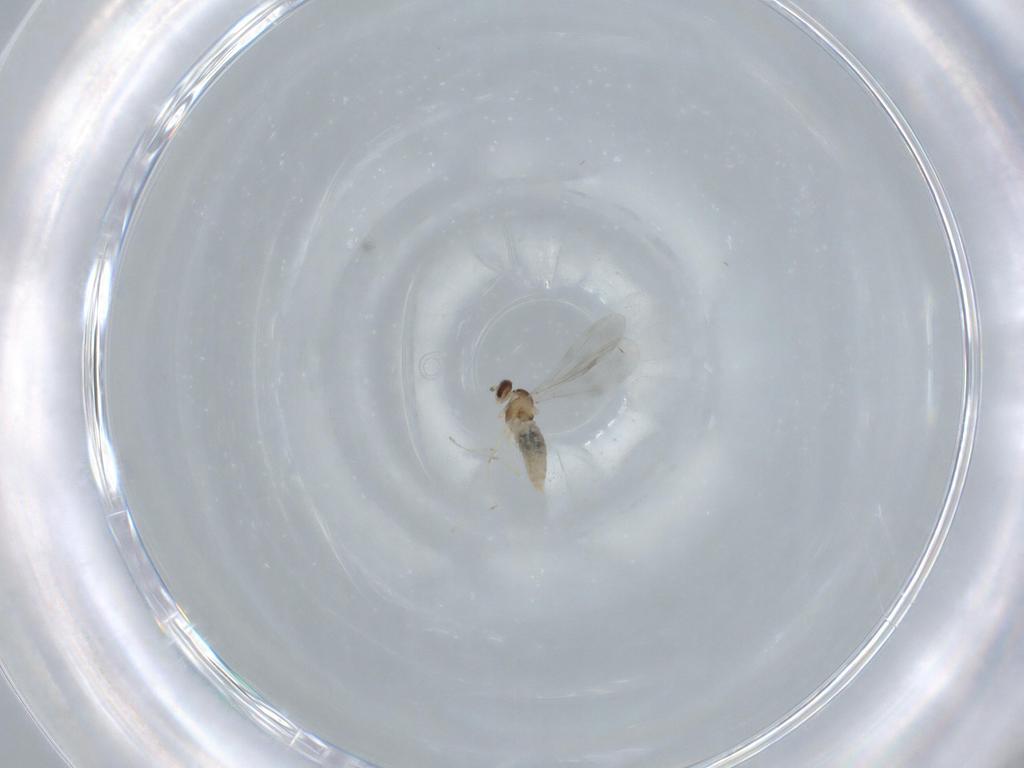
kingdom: Animalia
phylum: Arthropoda
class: Insecta
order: Diptera
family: Cecidomyiidae
